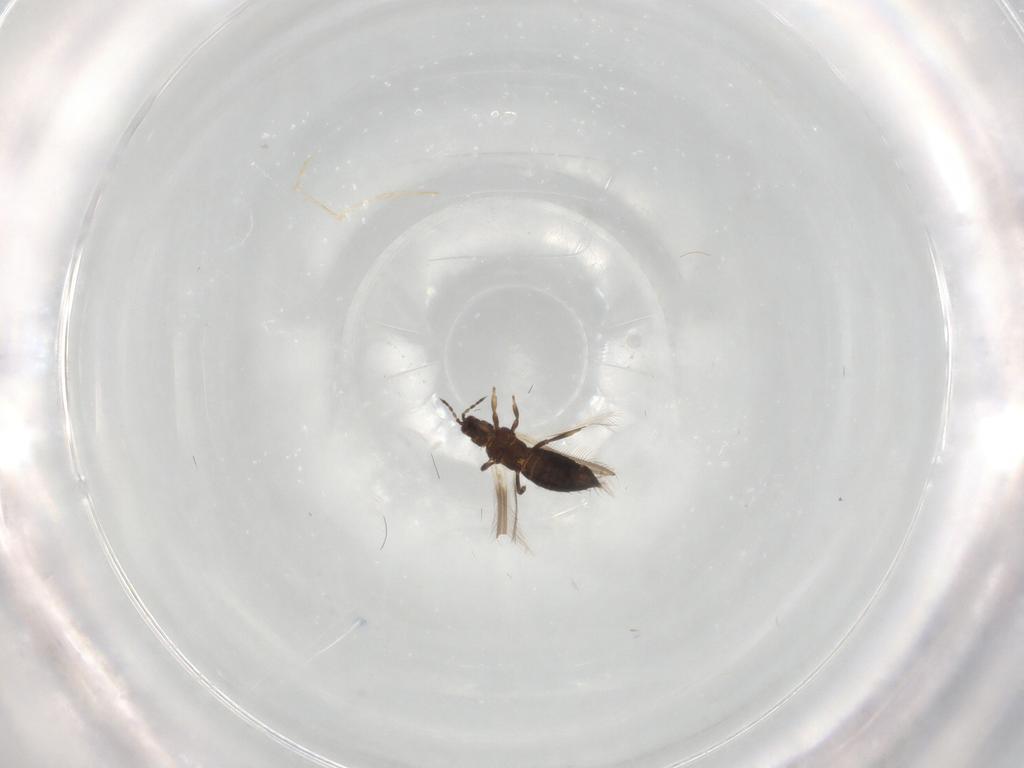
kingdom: Animalia
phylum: Arthropoda
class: Insecta
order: Thysanoptera
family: Thripidae
